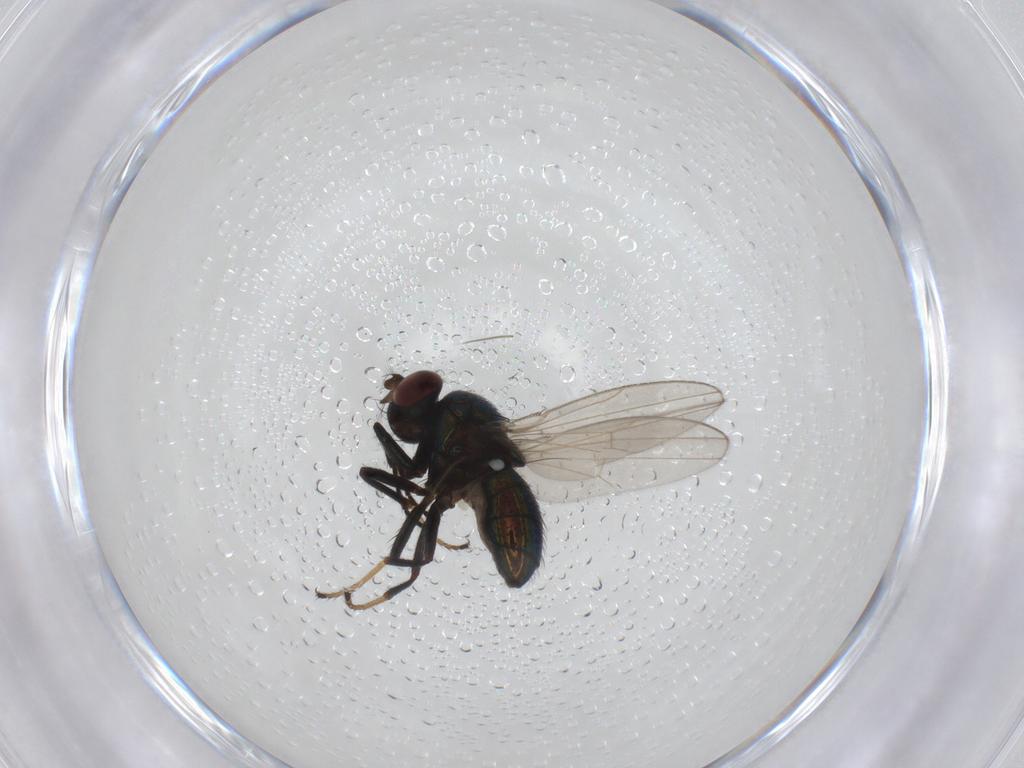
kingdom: Animalia
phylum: Arthropoda
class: Insecta
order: Diptera
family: Ephydridae
